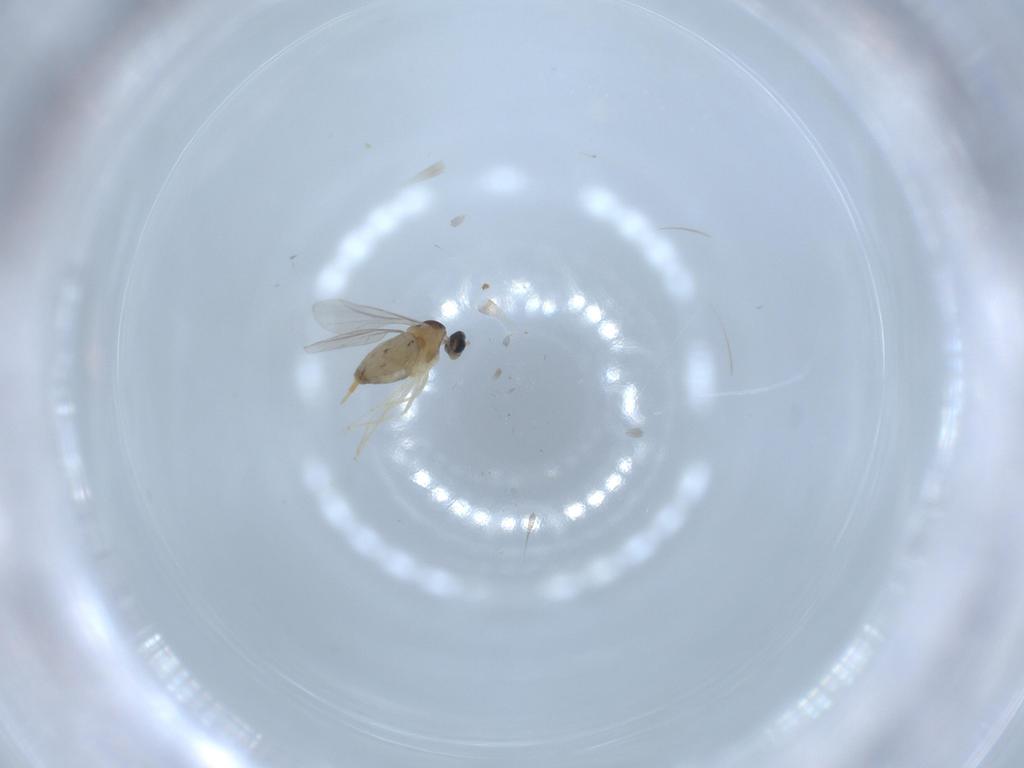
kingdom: Animalia
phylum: Arthropoda
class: Insecta
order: Diptera
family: Cecidomyiidae
